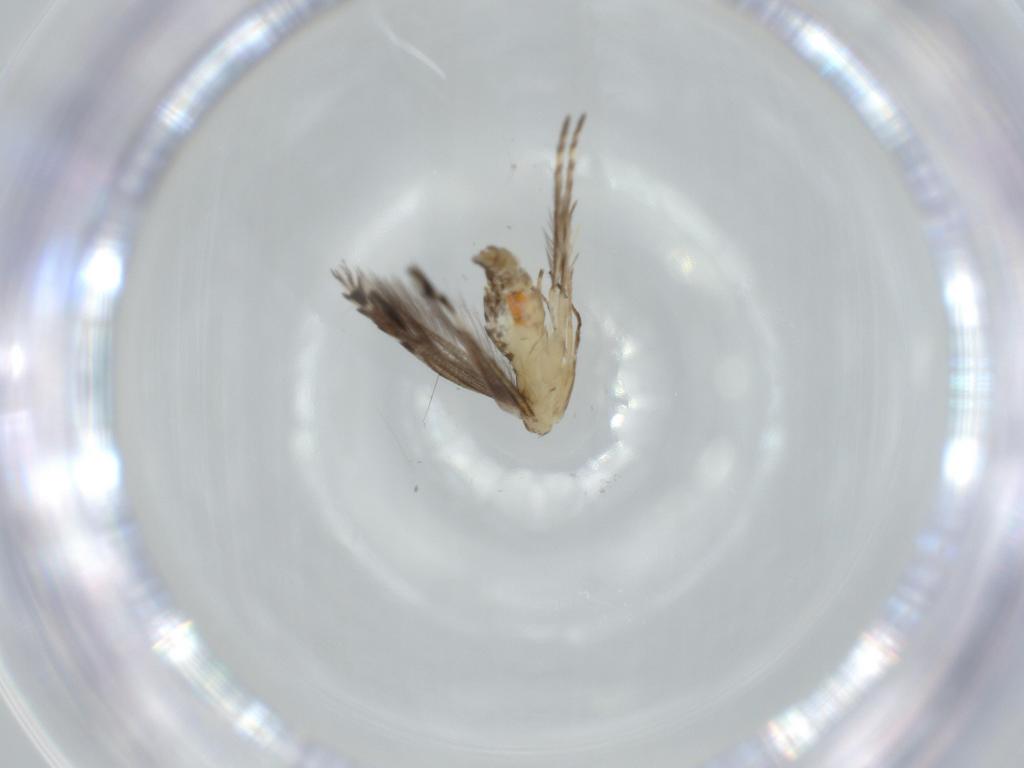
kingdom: Animalia
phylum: Arthropoda
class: Insecta
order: Lepidoptera
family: Gracillariidae
